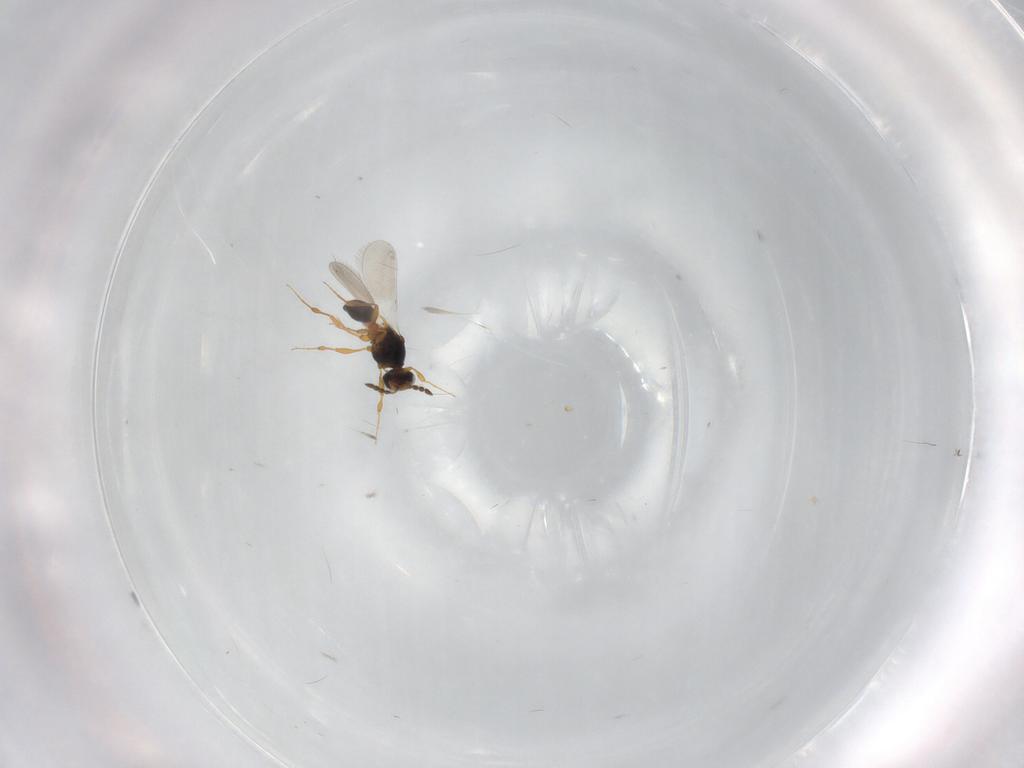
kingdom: Animalia
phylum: Arthropoda
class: Insecta
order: Hymenoptera
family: Platygastridae
